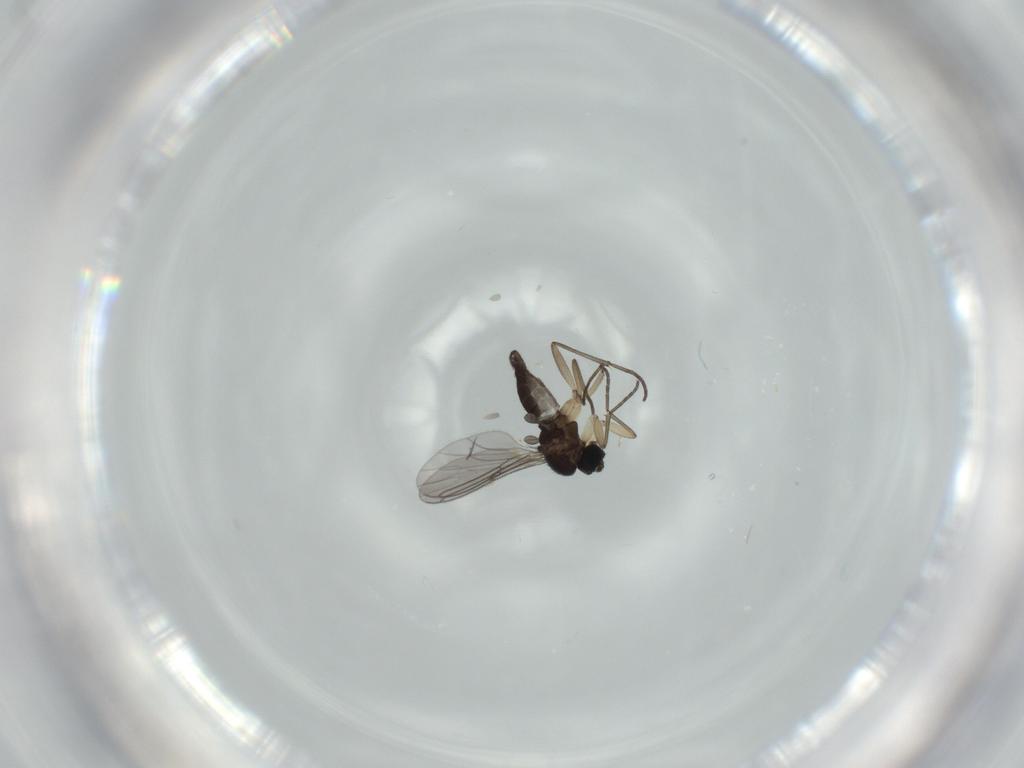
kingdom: Animalia
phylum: Arthropoda
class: Insecta
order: Diptera
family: Sciaridae
